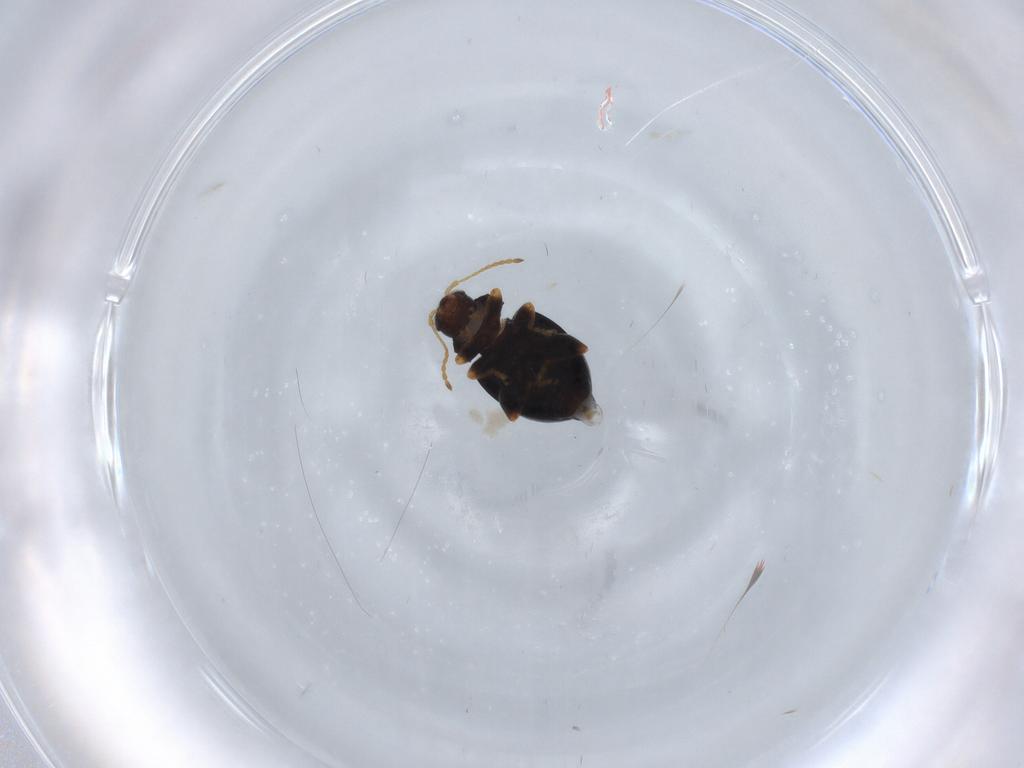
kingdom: Animalia
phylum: Arthropoda
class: Insecta
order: Coleoptera
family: Chrysomelidae
